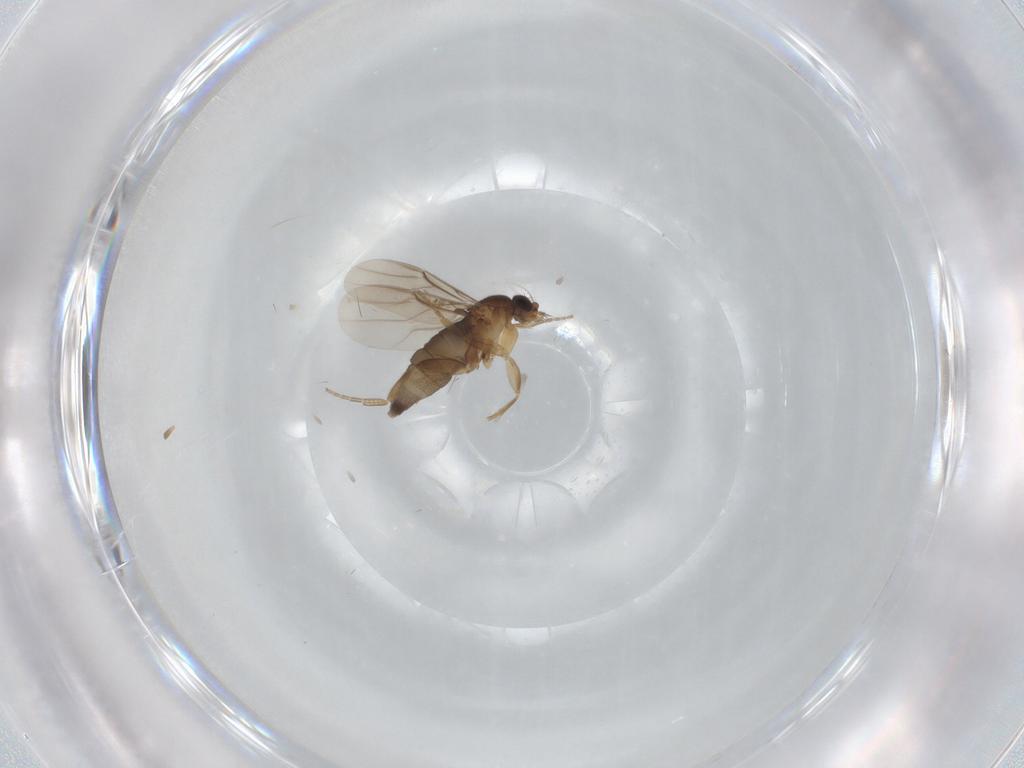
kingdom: Animalia
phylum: Arthropoda
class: Insecta
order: Diptera
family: Phoridae
